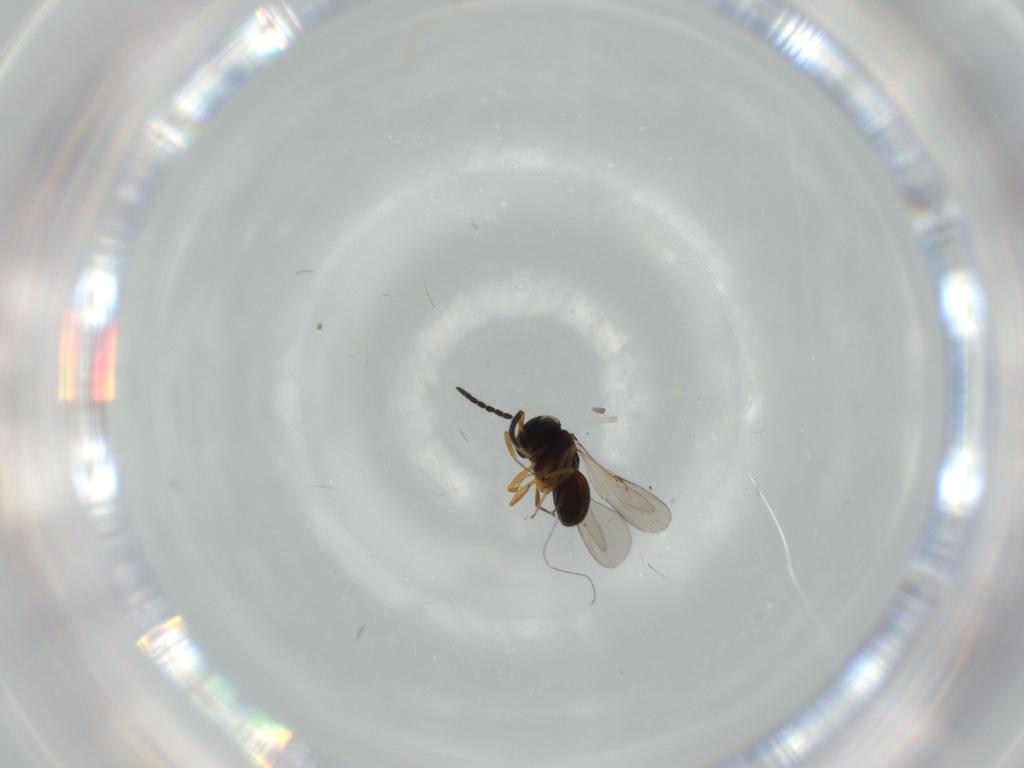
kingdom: Animalia
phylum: Arthropoda
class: Insecta
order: Hymenoptera
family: Scelionidae
